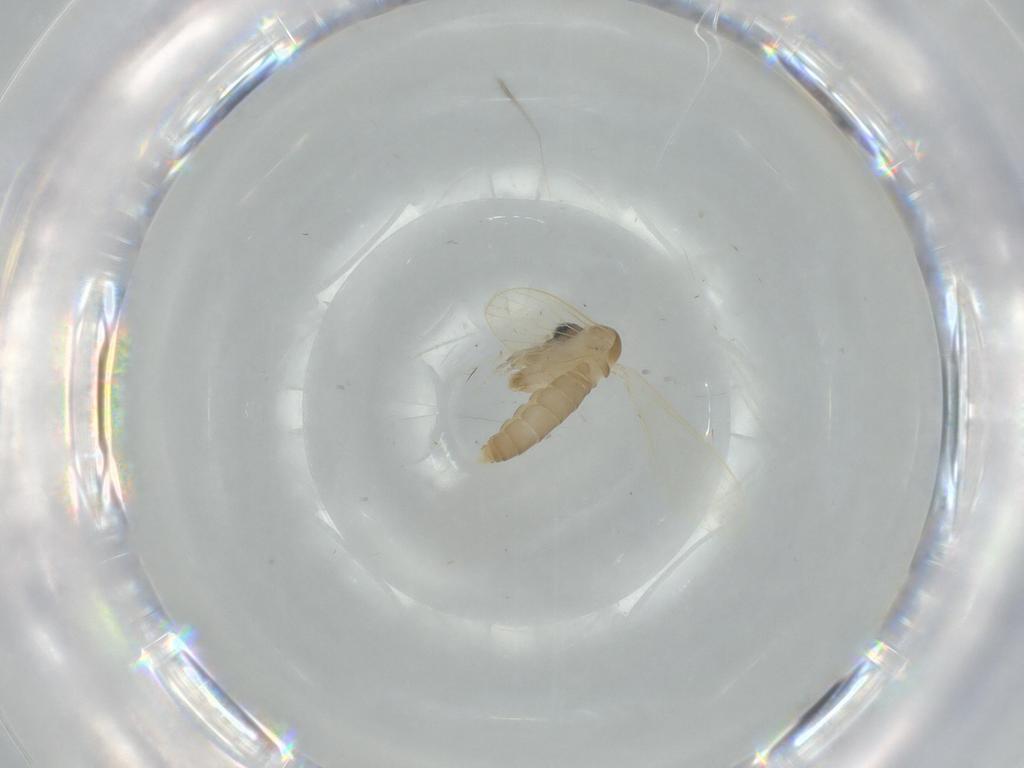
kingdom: Animalia
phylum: Arthropoda
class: Insecta
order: Diptera
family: Psychodidae
